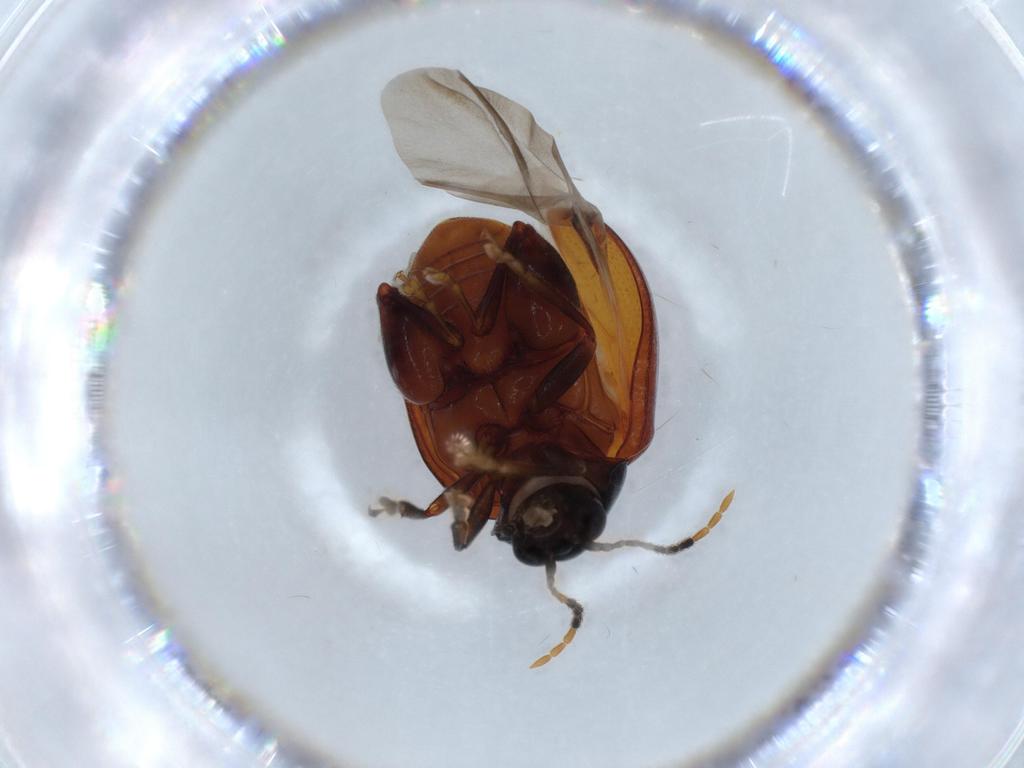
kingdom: Animalia
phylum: Arthropoda
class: Insecta
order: Coleoptera
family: Chrysomelidae
